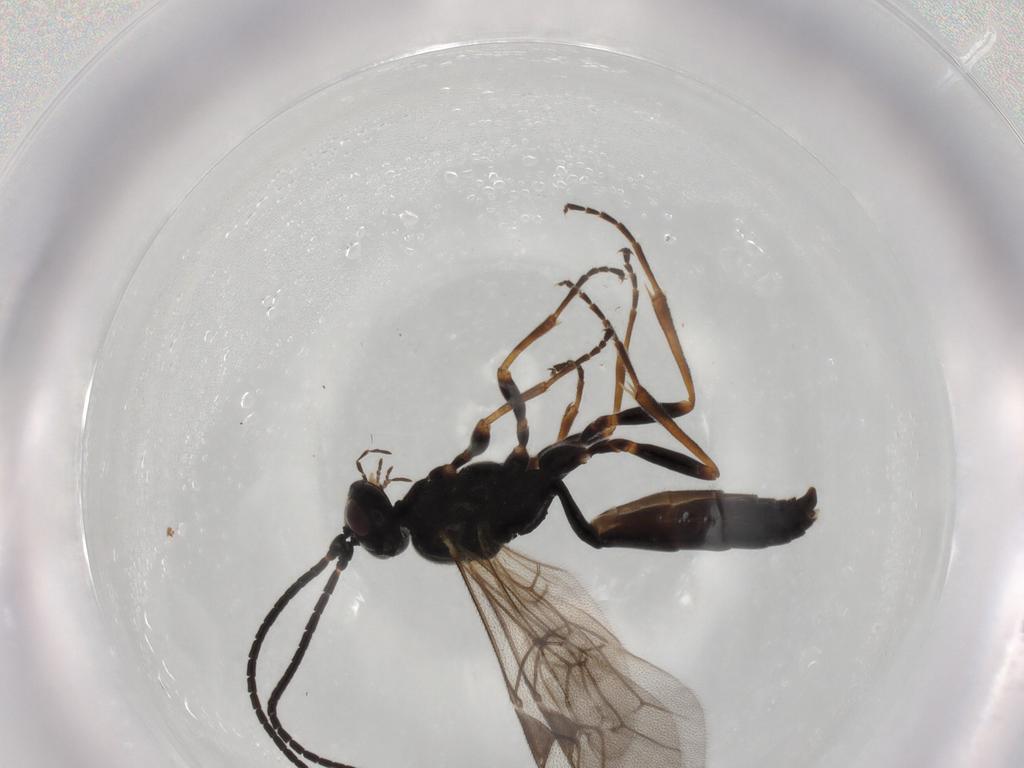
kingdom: Animalia
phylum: Arthropoda
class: Insecta
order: Hymenoptera
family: Ichneumonidae
